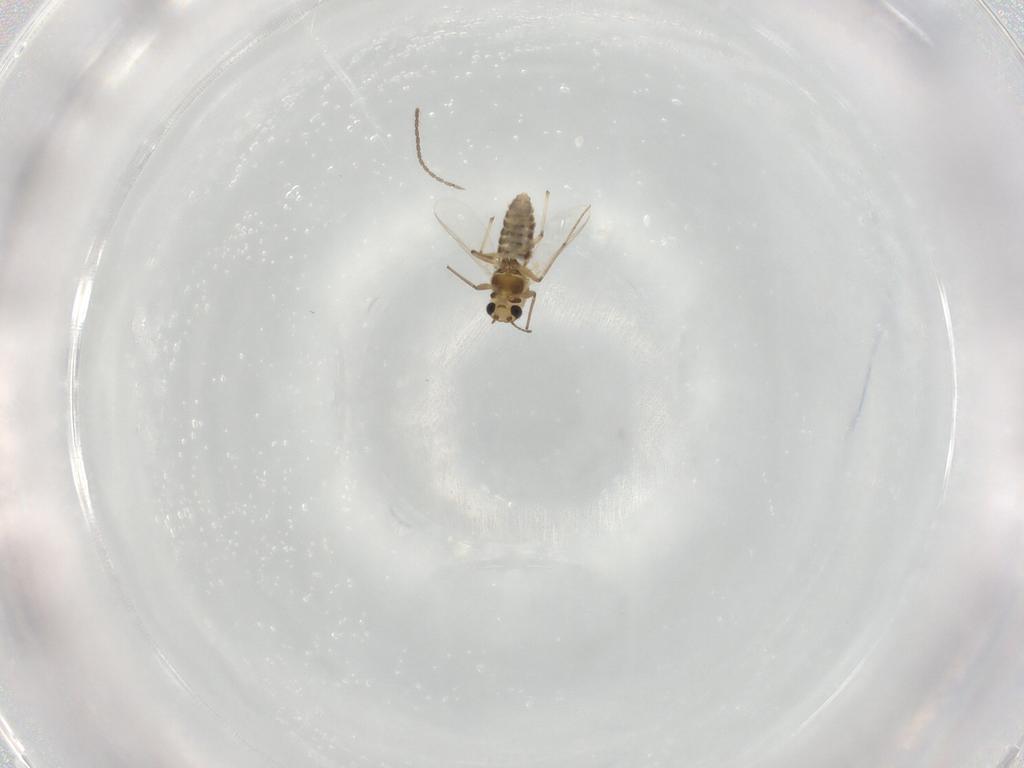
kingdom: Animalia
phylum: Arthropoda
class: Insecta
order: Diptera
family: Chironomidae
